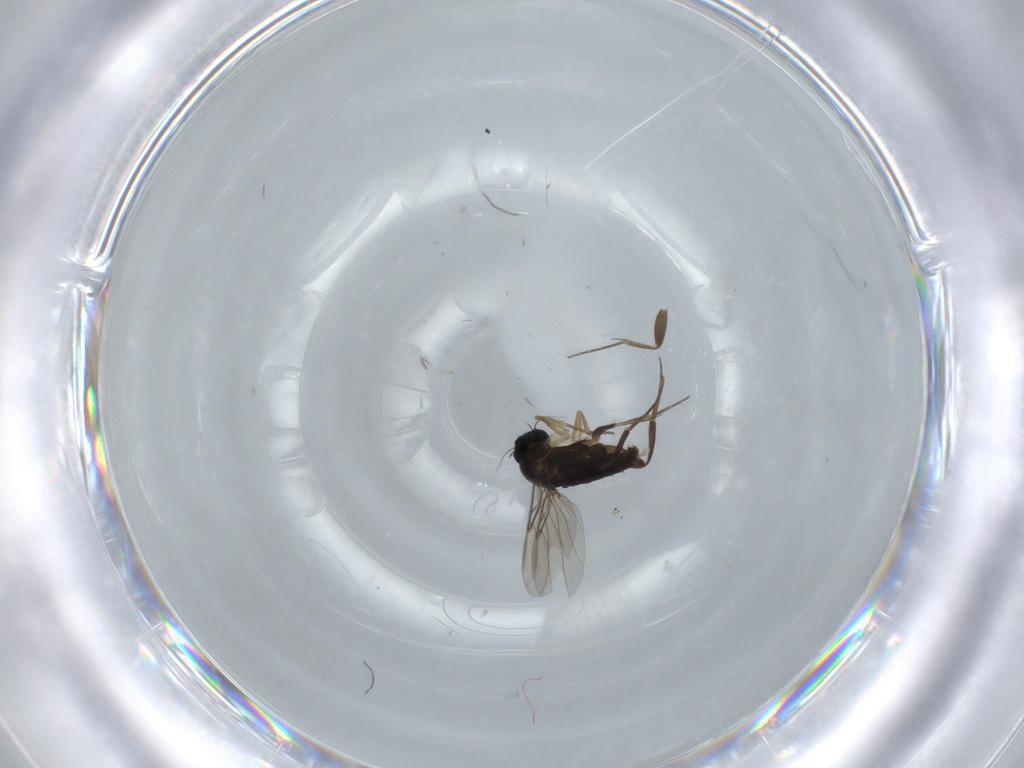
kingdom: Animalia
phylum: Arthropoda
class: Insecta
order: Diptera
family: Phoridae
